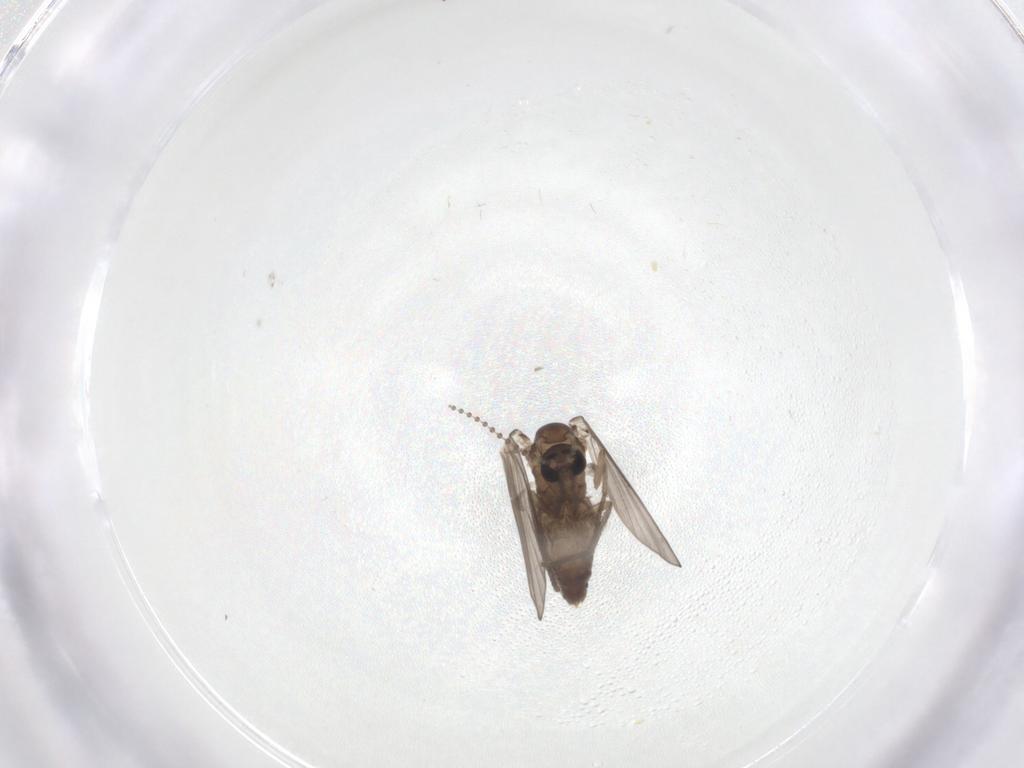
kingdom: Animalia
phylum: Arthropoda
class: Insecta
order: Diptera
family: Psychodidae
